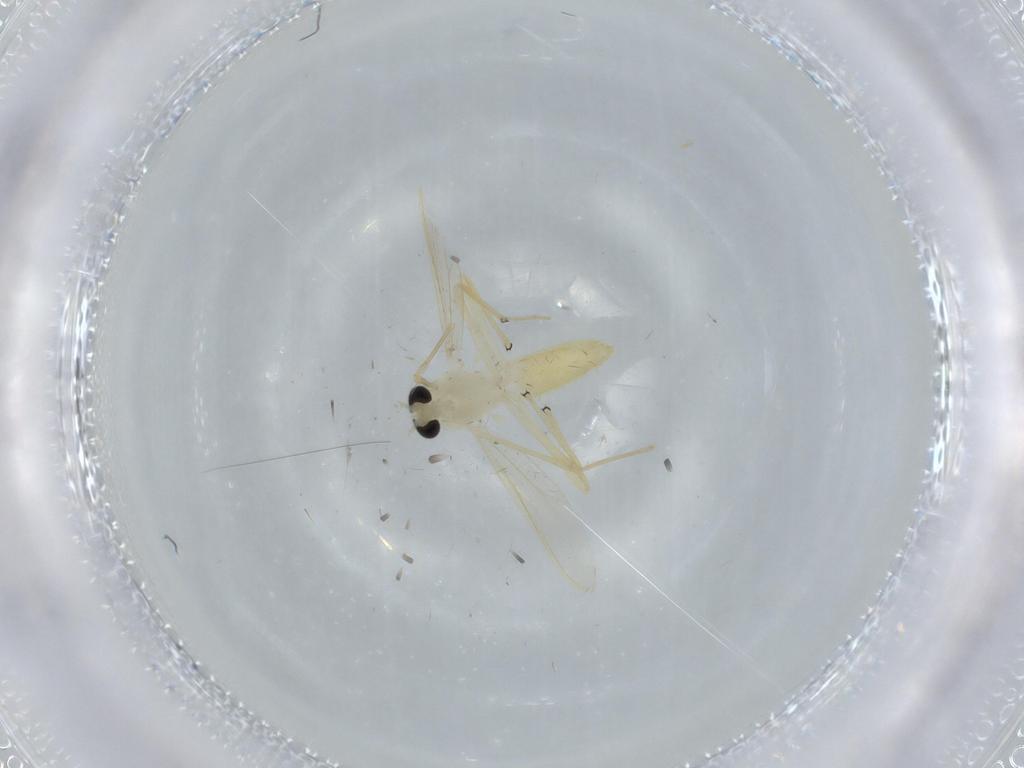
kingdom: Animalia
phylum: Arthropoda
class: Insecta
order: Diptera
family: Chironomidae
